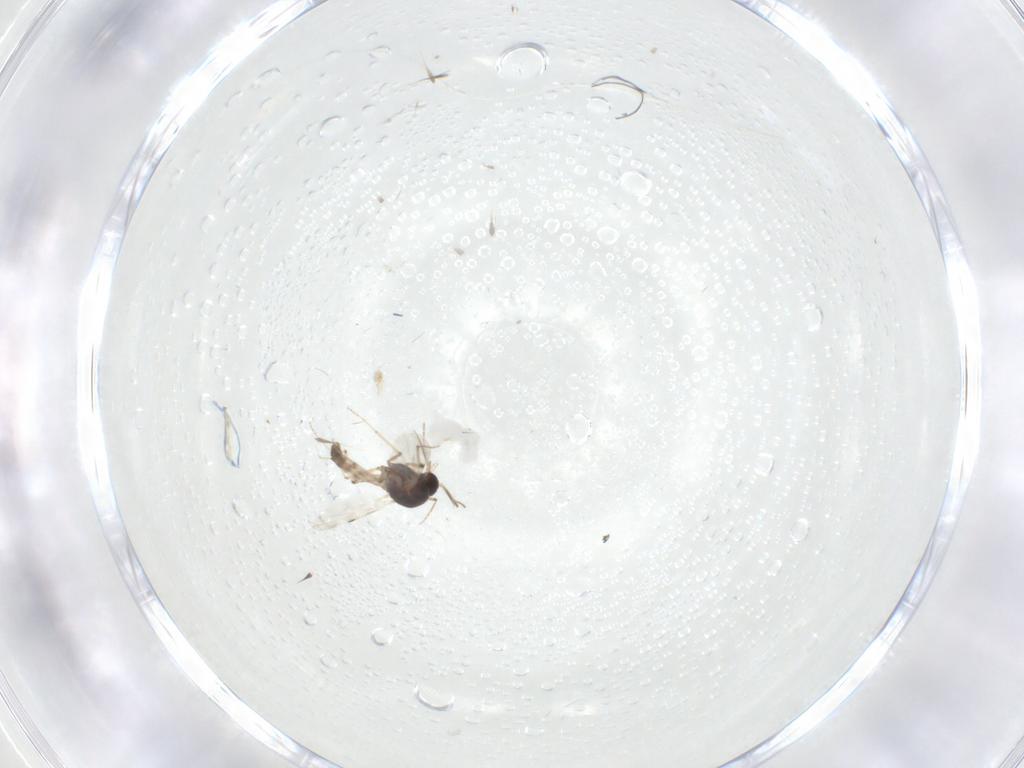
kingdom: Animalia
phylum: Arthropoda
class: Insecta
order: Diptera
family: Chironomidae
